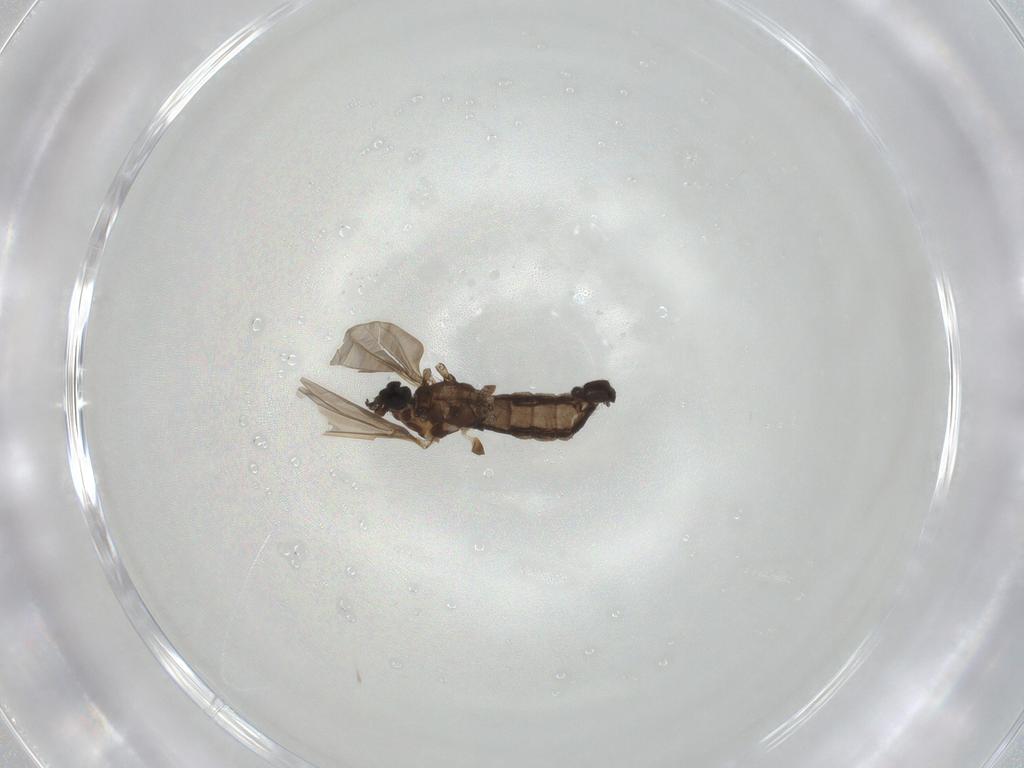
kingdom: Animalia
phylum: Arthropoda
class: Insecta
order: Diptera
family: Limoniidae
